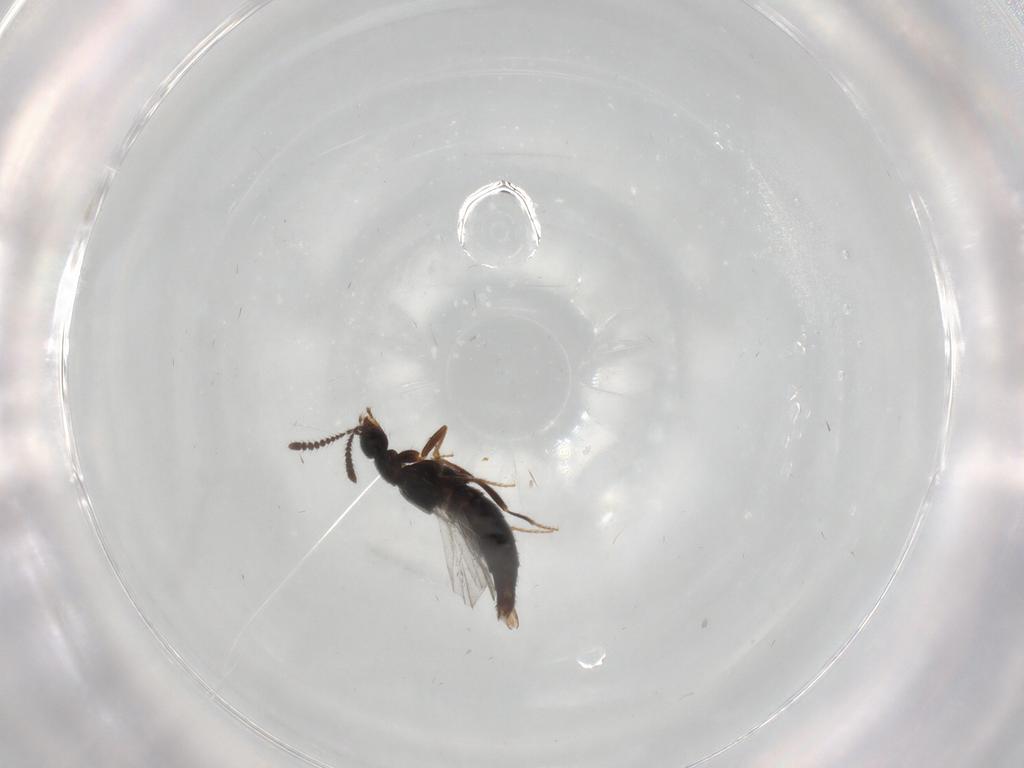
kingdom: Animalia
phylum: Arthropoda
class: Insecta
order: Coleoptera
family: Staphylinidae
